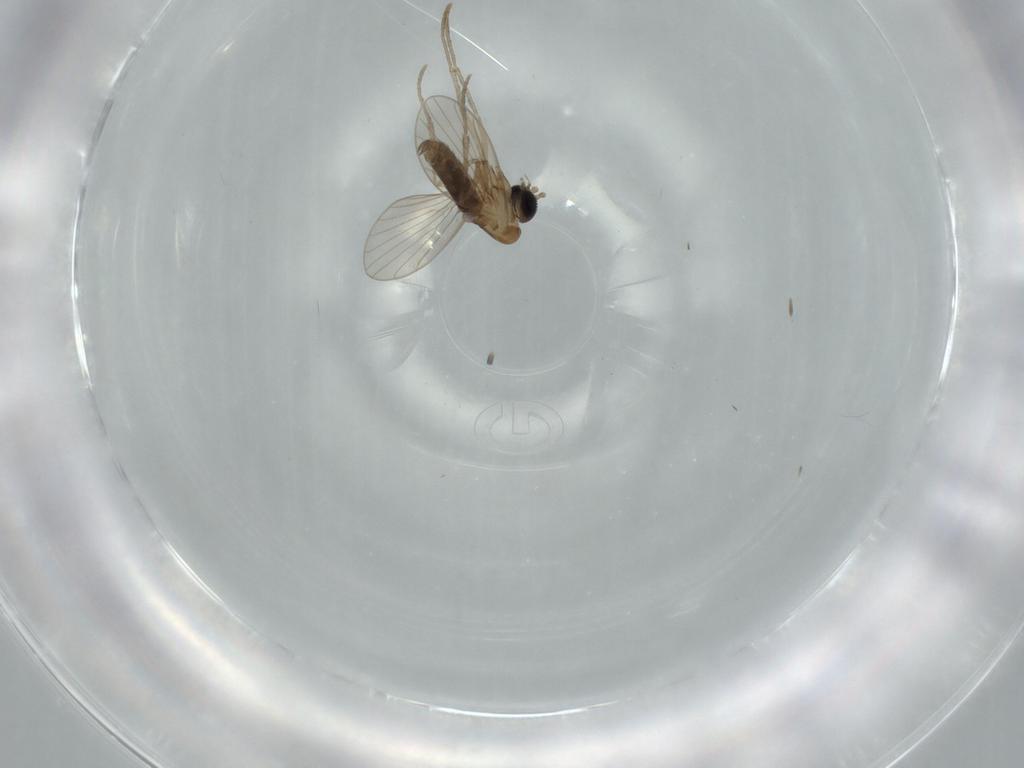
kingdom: Animalia
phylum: Arthropoda
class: Insecta
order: Diptera
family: Psychodidae
